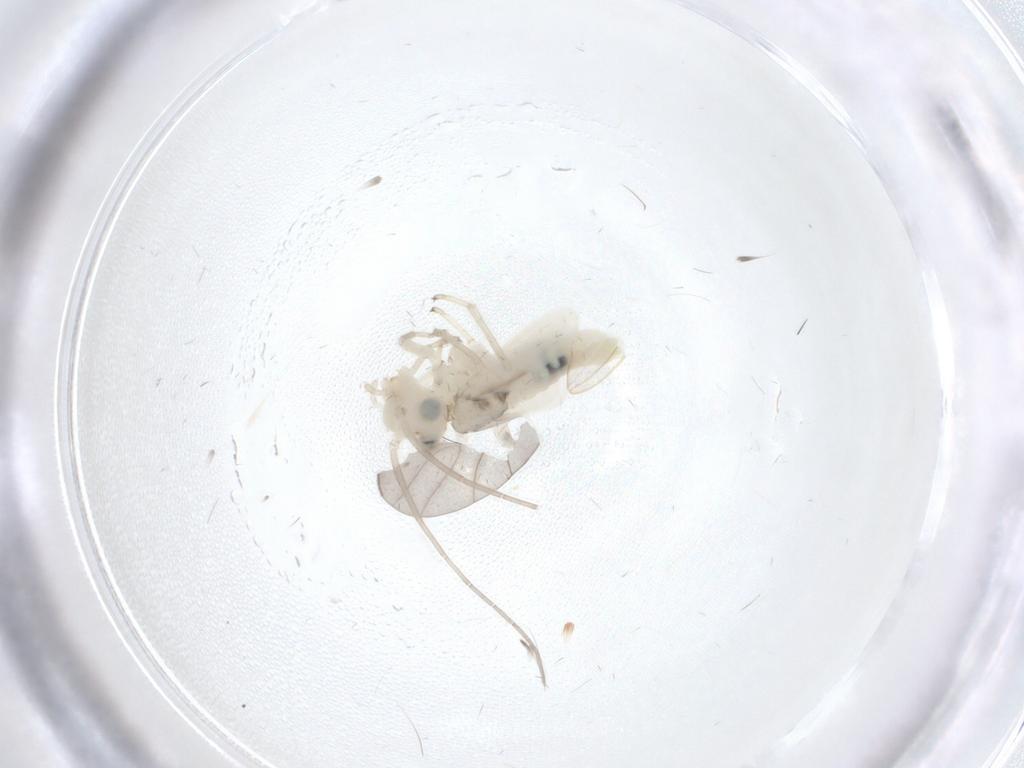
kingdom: Animalia
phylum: Arthropoda
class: Insecta
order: Psocodea
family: Caeciliusidae
